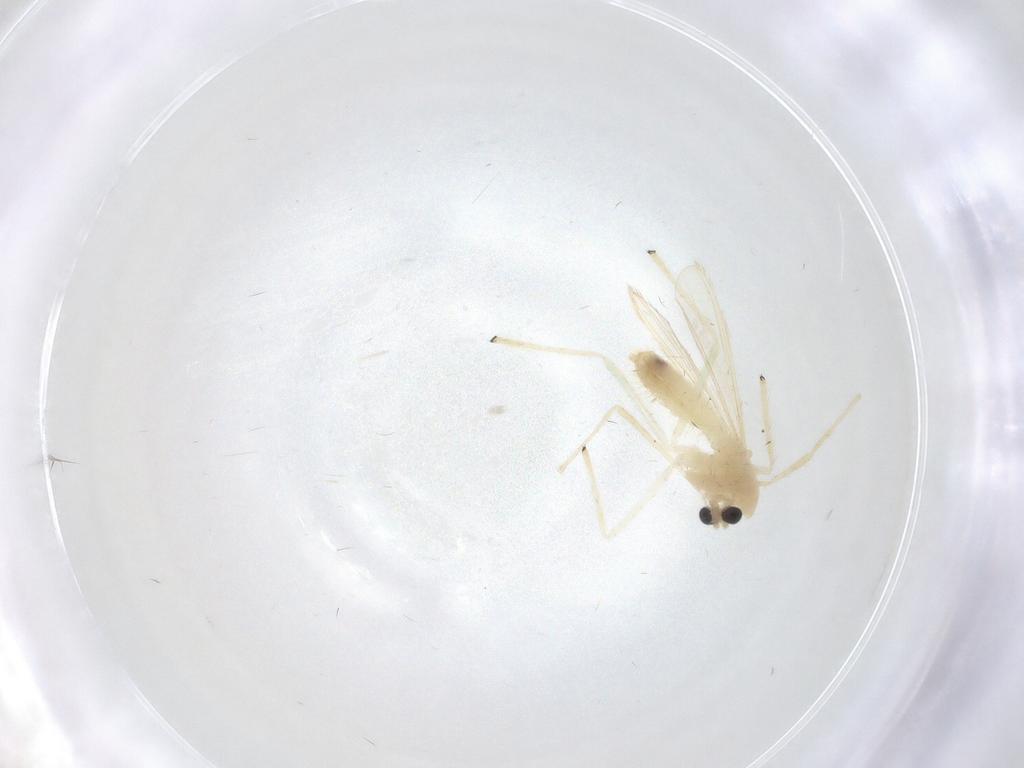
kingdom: Animalia
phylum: Arthropoda
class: Insecta
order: Diptera
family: Chironomidae
